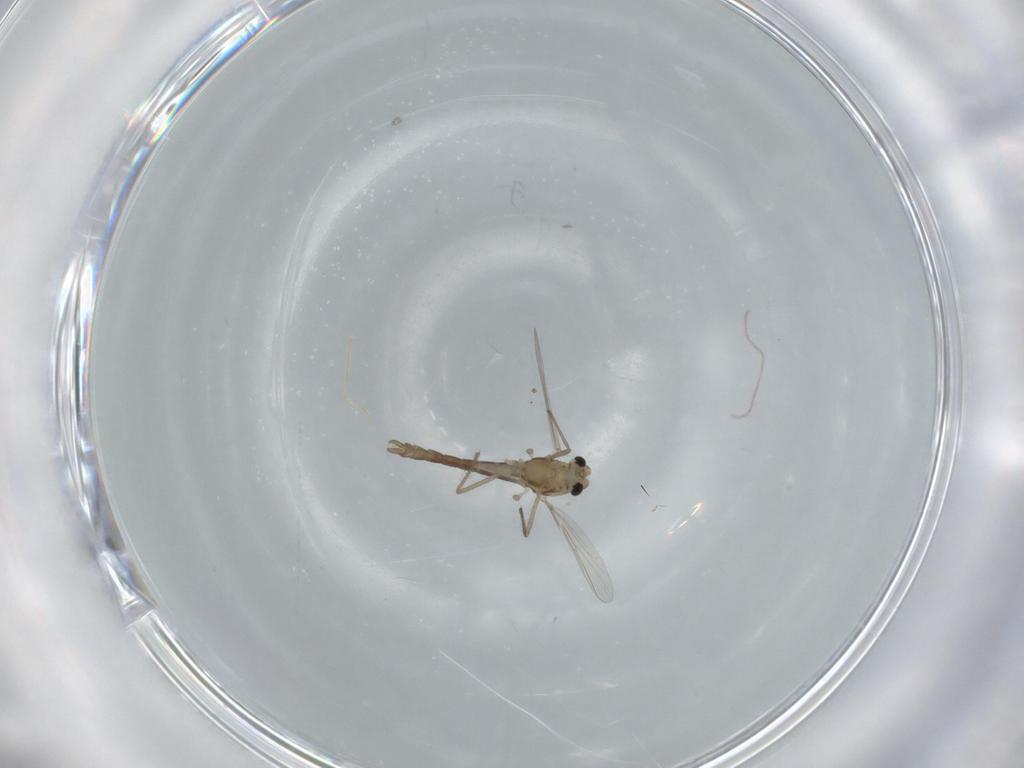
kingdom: Animalia
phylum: Arthropoda
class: Insecta
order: Diptera
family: Chironomidae
